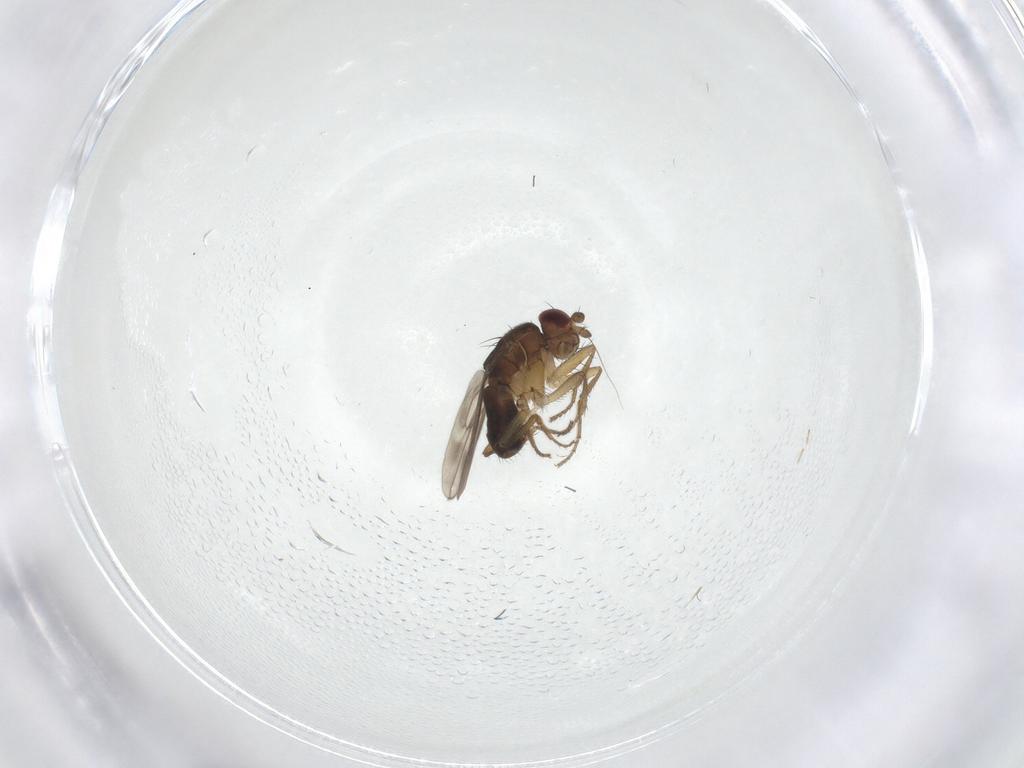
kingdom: Animalia
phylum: Arthropoda
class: Insecta
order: Diptera
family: Sphaeroceridae
